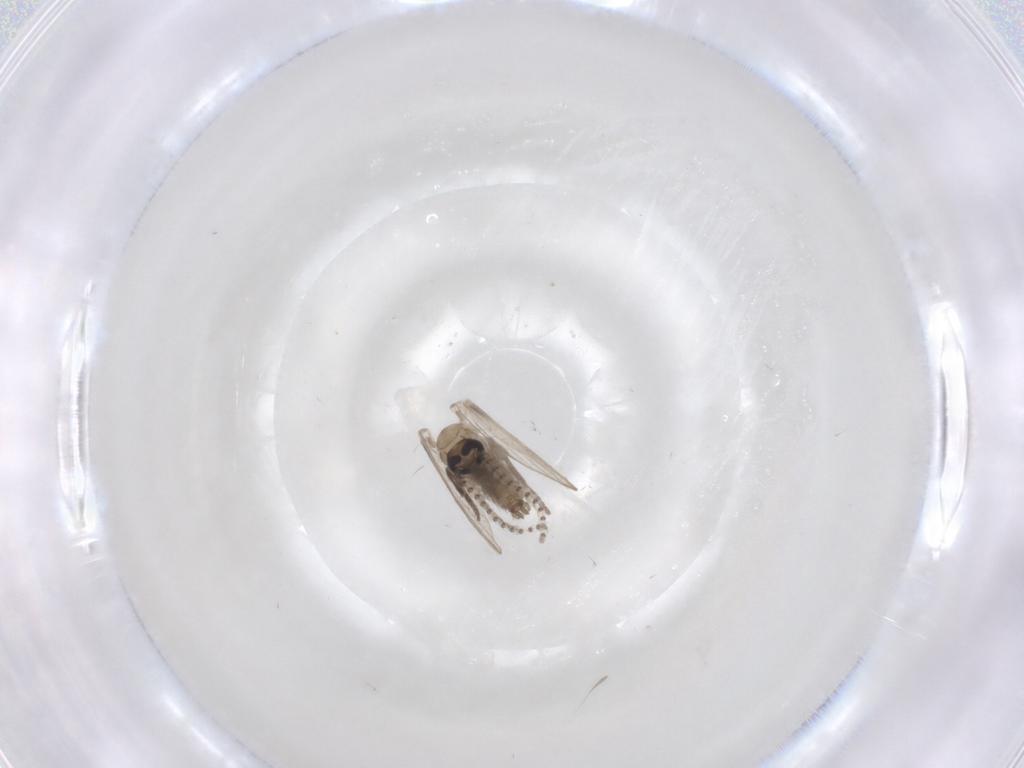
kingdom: Animalia
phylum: Arthropoda
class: Insecta
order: Diptera
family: Psychodidae
